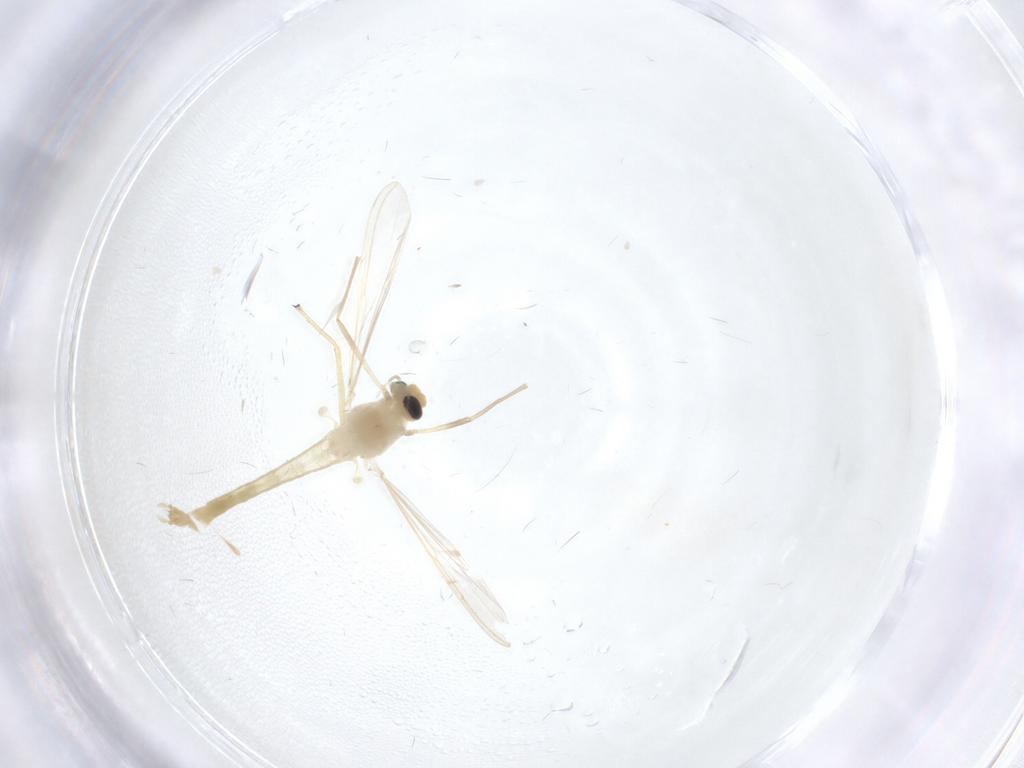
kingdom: Animalia
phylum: Arthropoda
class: Insecta
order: Diptera
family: Chironomidae
